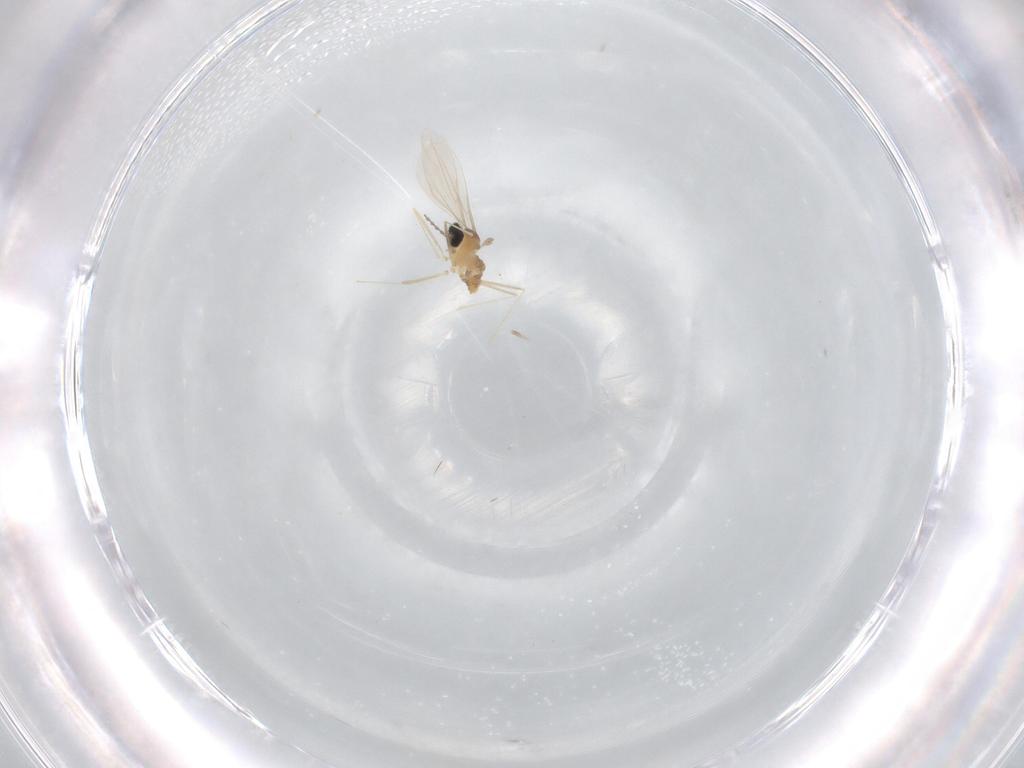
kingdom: Animalia
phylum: Arthropoda
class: Insecta
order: Diptera
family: Cecidomyiidae
